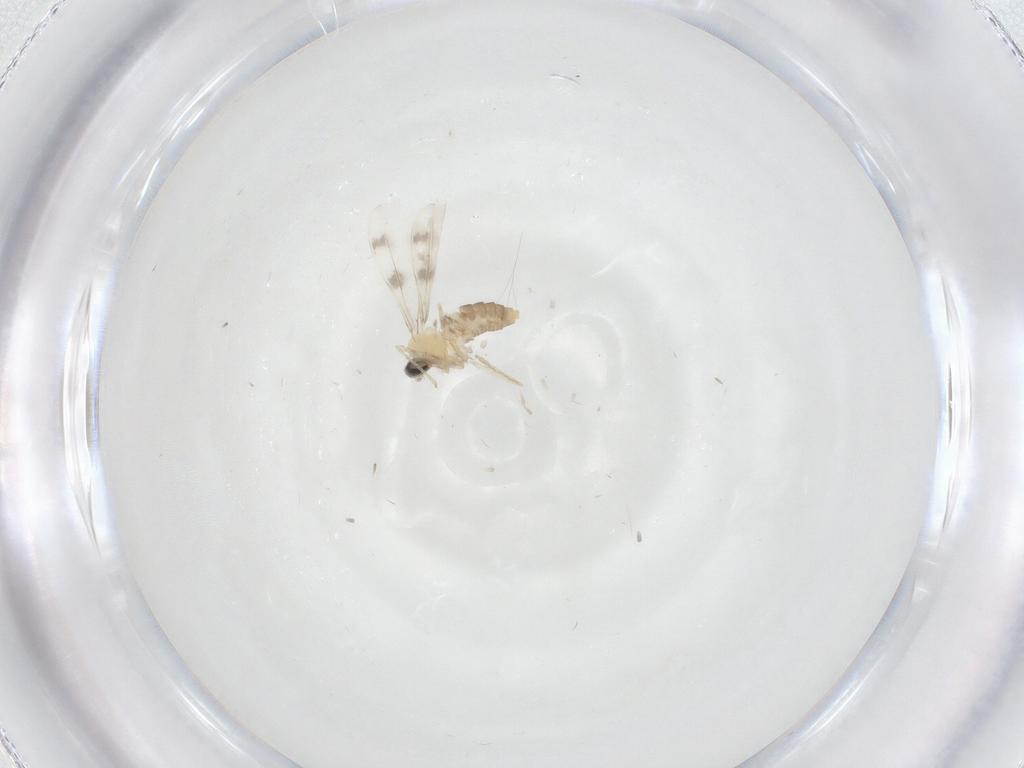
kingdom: Animalia
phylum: Arthropoda
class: Insecta
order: Diptera
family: Cecidomyiidae
